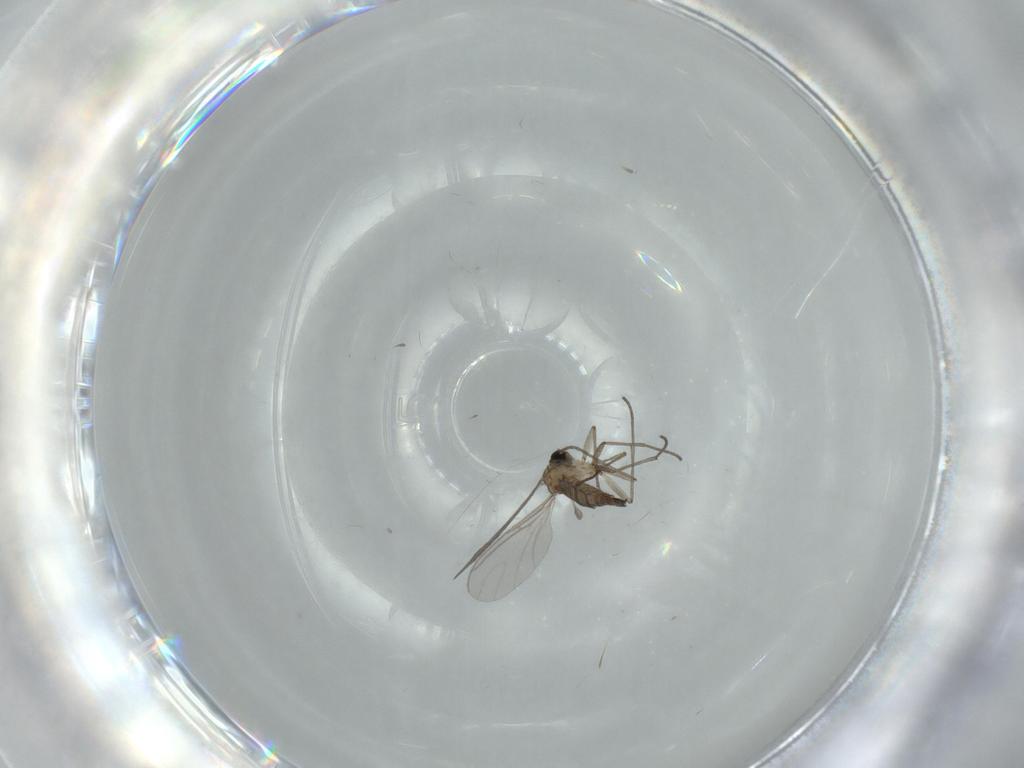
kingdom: Animalia
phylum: Arthropoda
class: Insecta
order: Diptera
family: Sciaridae
